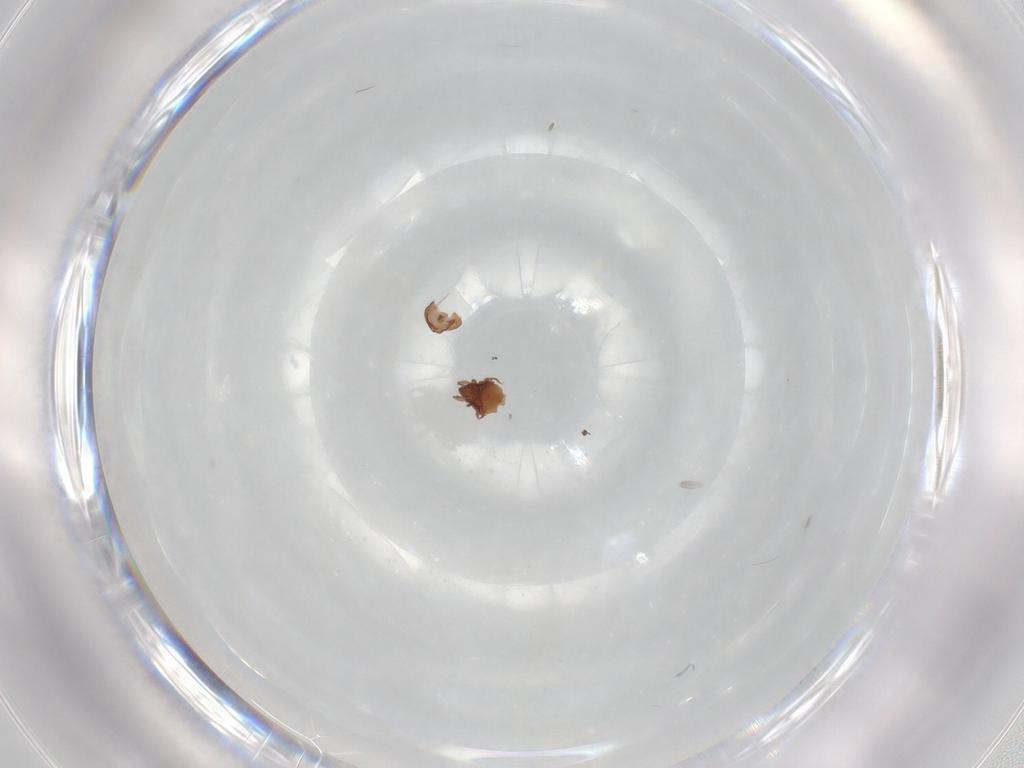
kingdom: Animalia
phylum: Arthropoda
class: Arachnida
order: Sarcoptiformes
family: Oribatulidae
